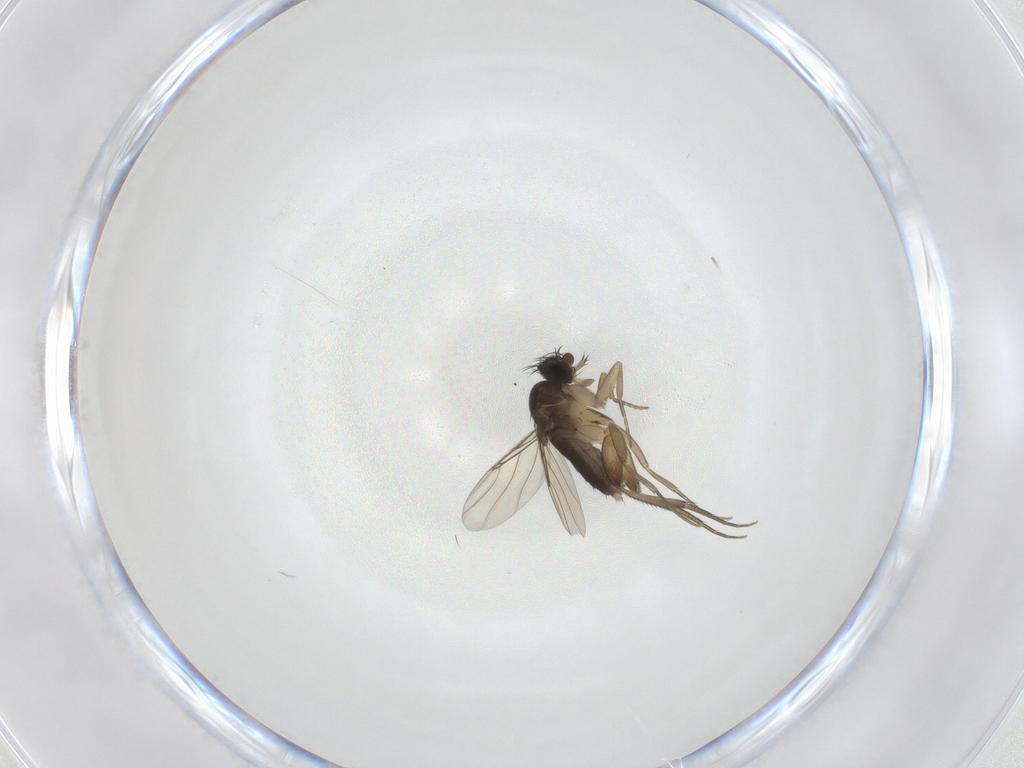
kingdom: Animalia
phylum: Arthropoda
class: Insecta
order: Diptera
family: Phoridae
